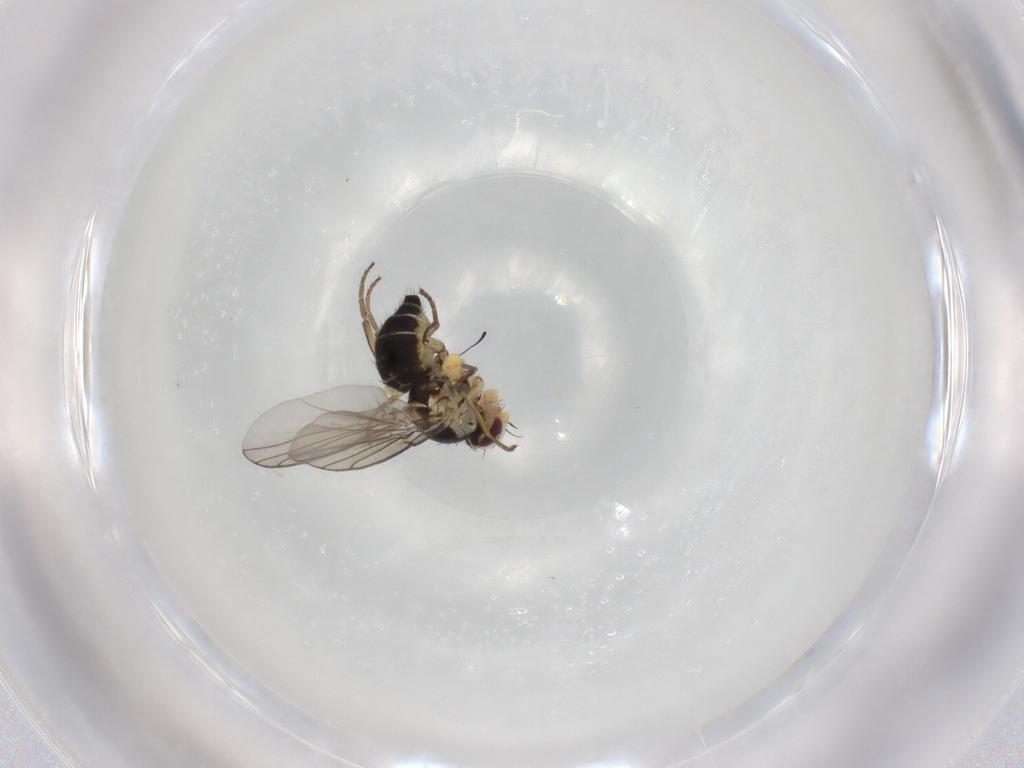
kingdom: Animalia
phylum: Arthropoda
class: Insecta
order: Diptera
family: Agromyzidae
